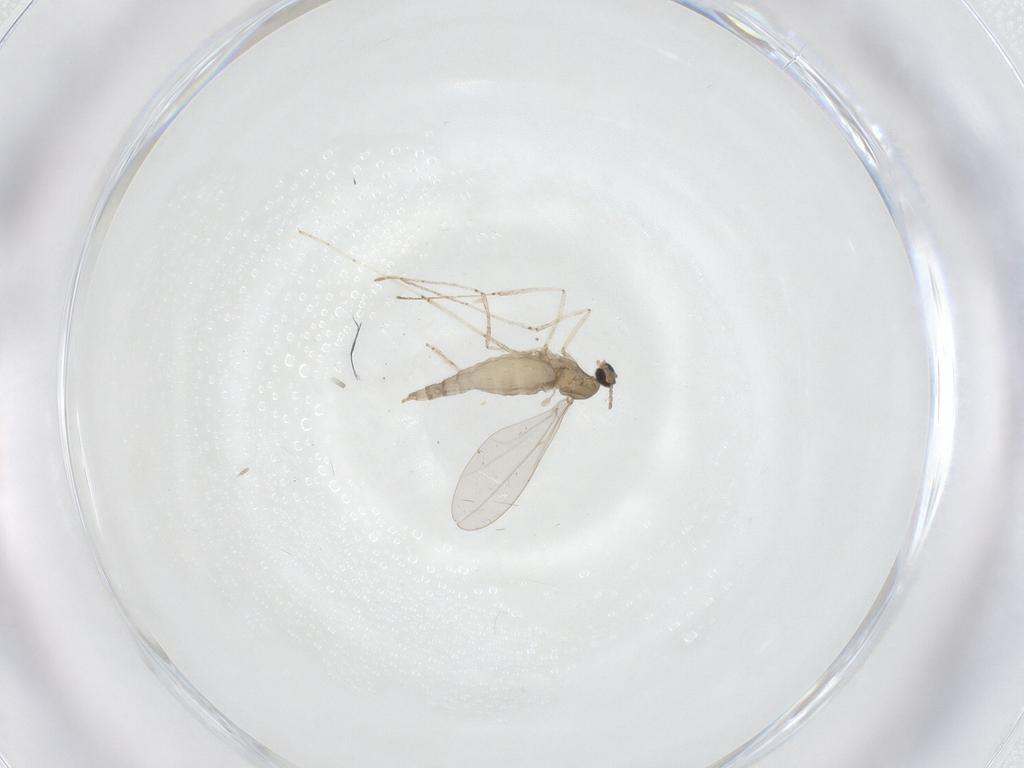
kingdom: Animalia
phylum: Arthropoda
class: Insecta
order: Diptera
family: Cecidomyiidae
